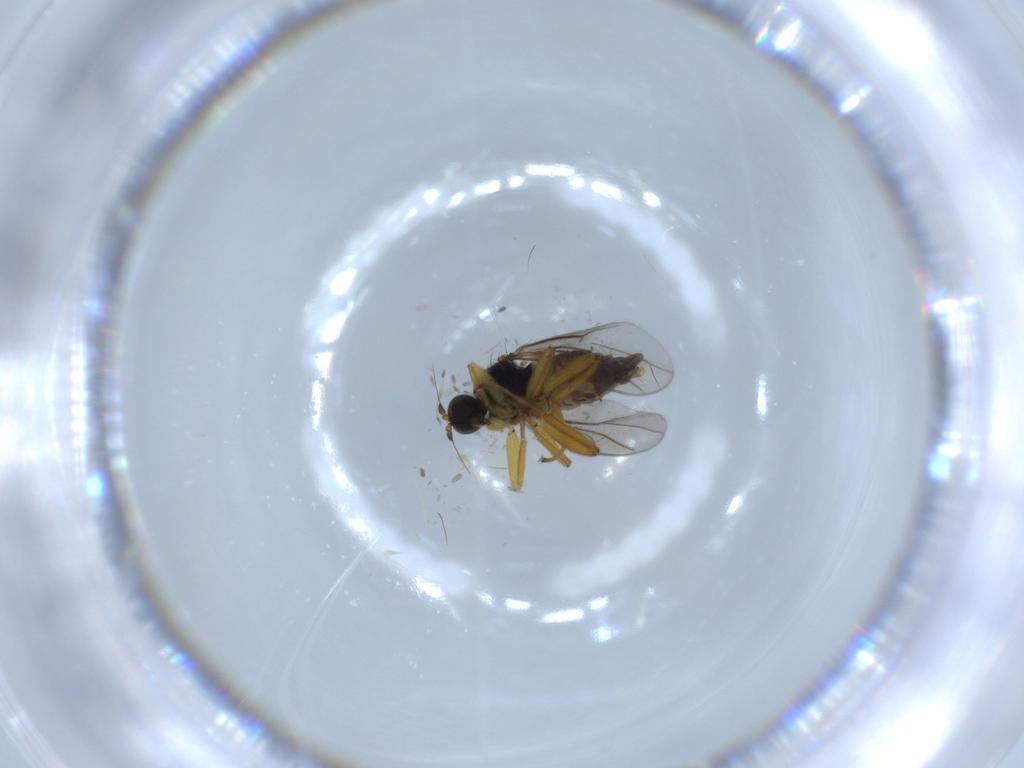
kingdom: Animalia
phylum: Arthropoda
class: Insecta
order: Diptera
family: Hybotidae
